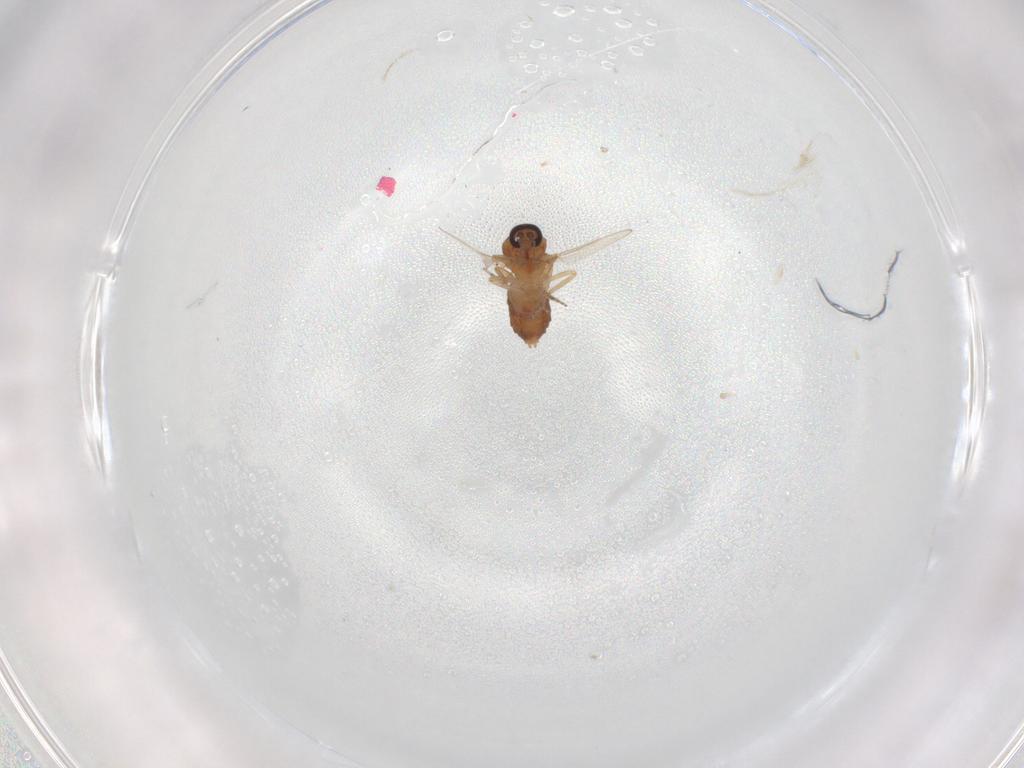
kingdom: Animalia
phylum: Arthropoda
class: Insecta
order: Diptera
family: Ceratopogonidae
